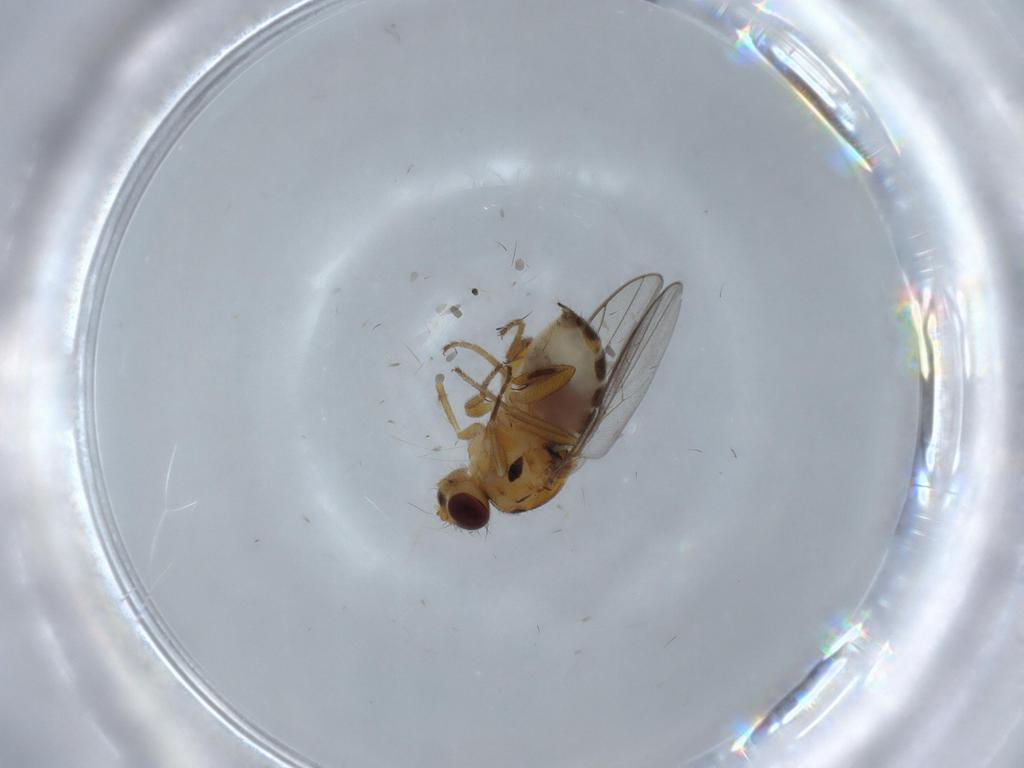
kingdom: Animalia
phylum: Arthropoda
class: Insecta
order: Diptera
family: Chloropidae
